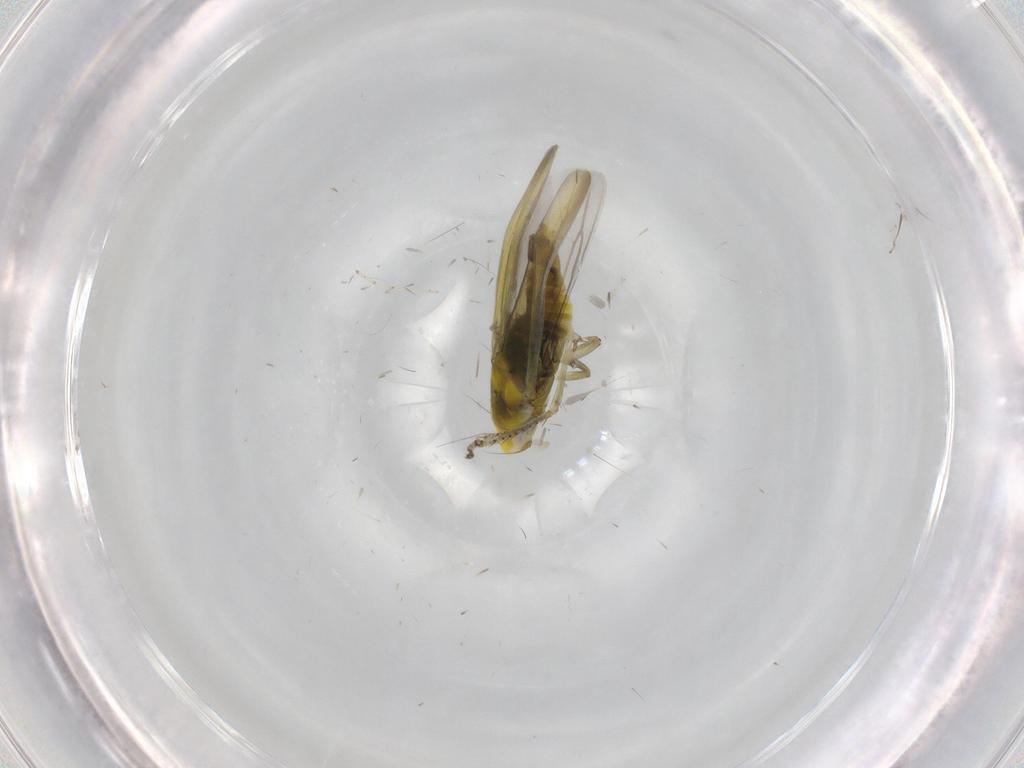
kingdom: Animalia
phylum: Arthropoda
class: Insecta
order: Hemiptera
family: Cicadellidae
